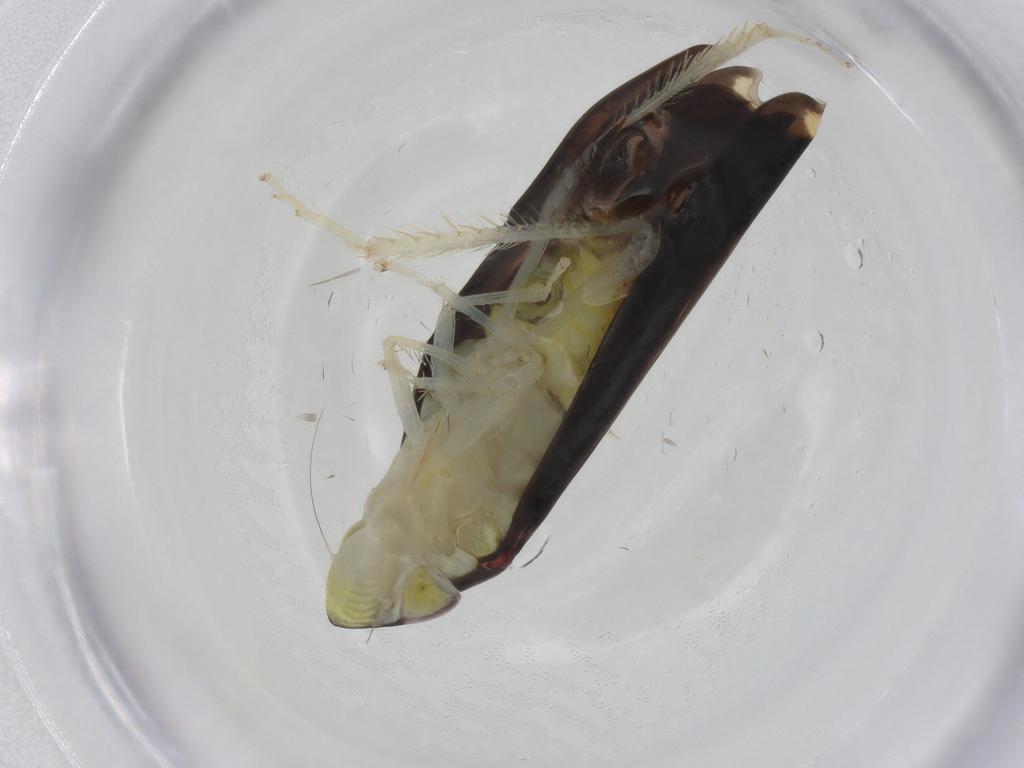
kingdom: Animalia
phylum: Arthropoda
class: Insecta
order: Hemiptera
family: Cicadellidae
